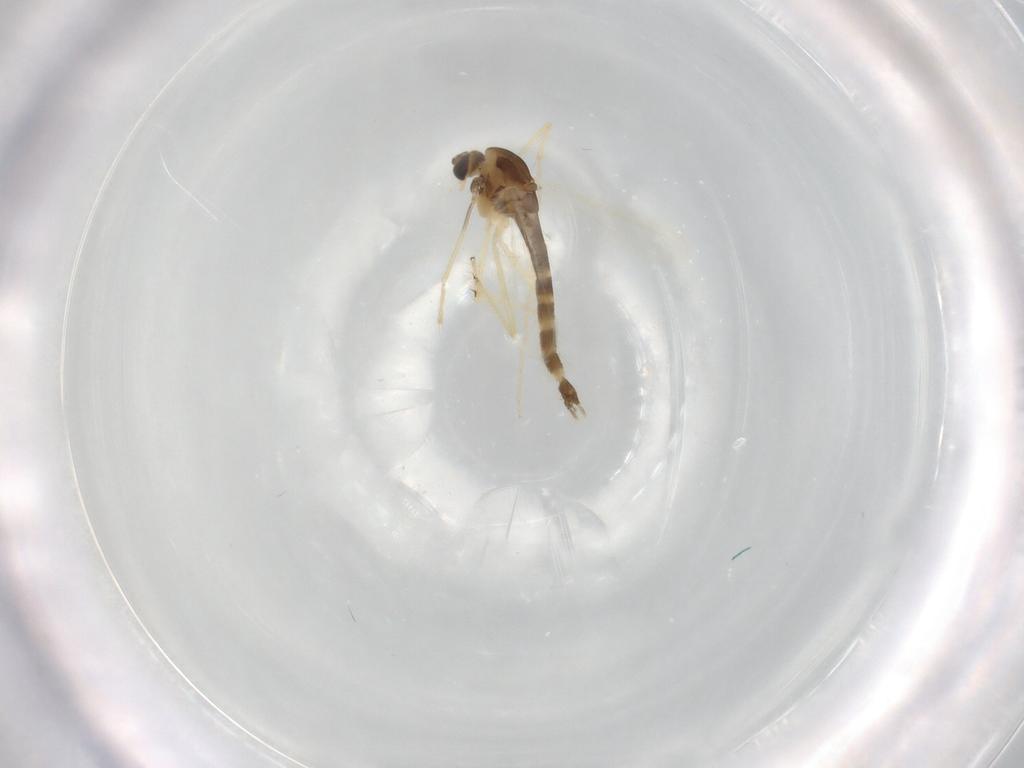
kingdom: Animalia
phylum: Arthropoda
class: Insecta
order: Diptera
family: Chironomidae
